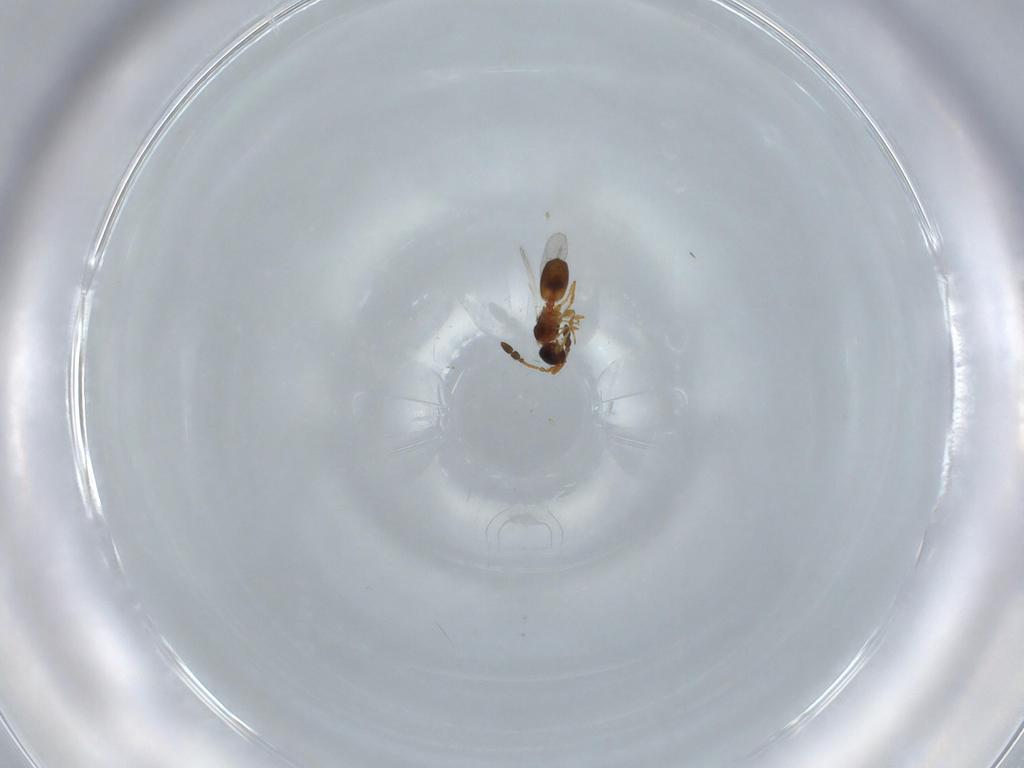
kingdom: Animalia
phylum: Arthropoda
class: Insecta
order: Hymenoptera
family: Diapriidae
